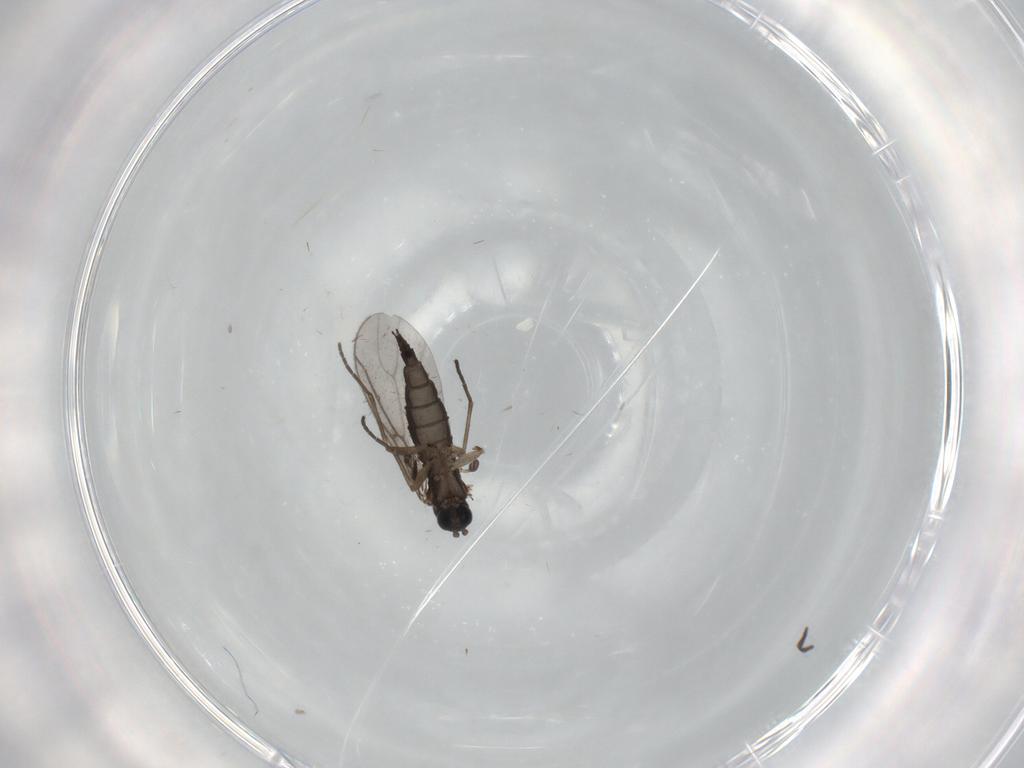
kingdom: Animalia
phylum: Arthropoda
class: Insecta
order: Diptera
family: Sciaridae
